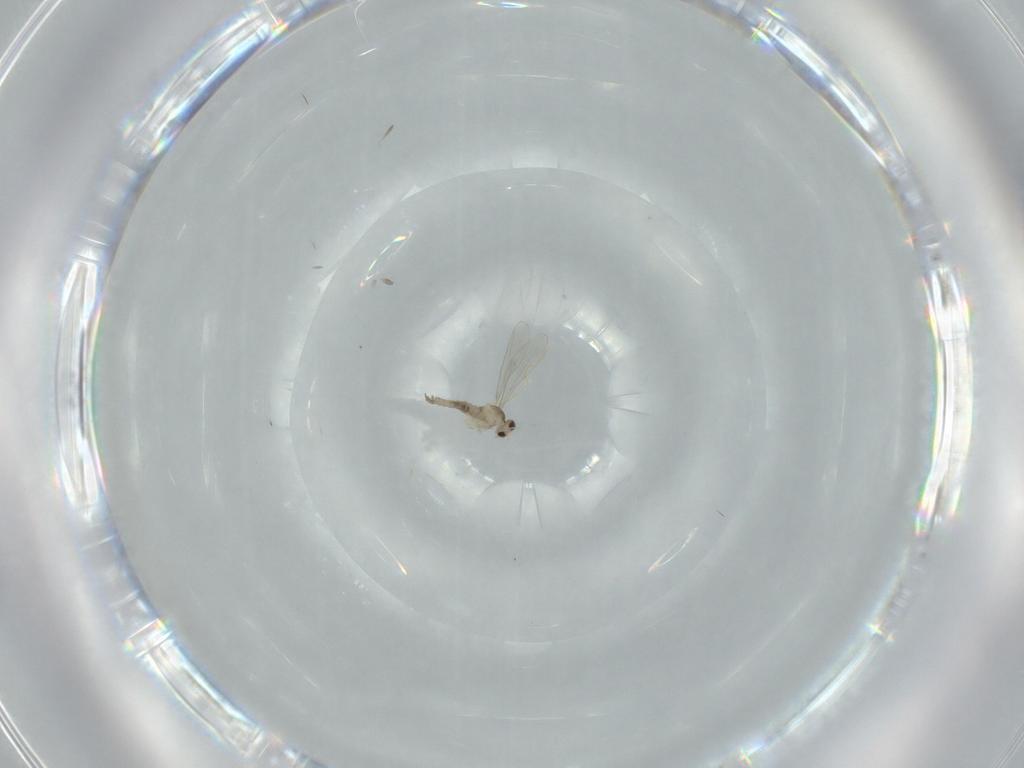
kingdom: Animalia
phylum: Arthropoda
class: Insecta
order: Diptera
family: Cecidomyiidae
